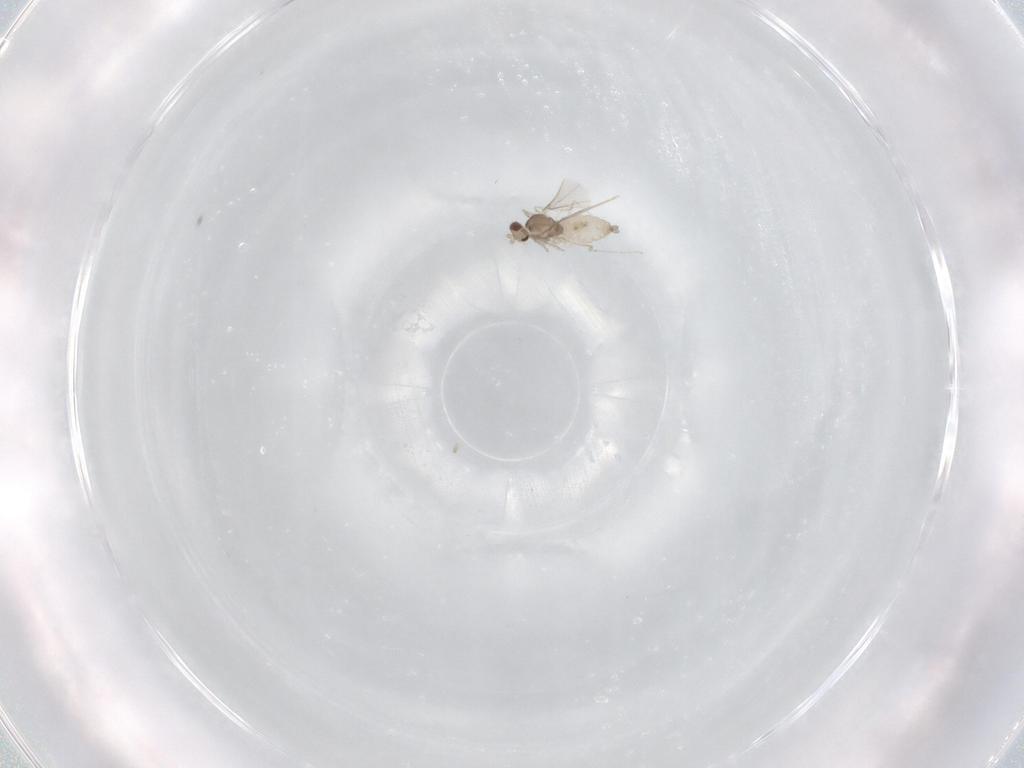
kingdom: Animalia
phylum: Arthropoda
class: Insecta
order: Diptera
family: Cecidomyiidae
